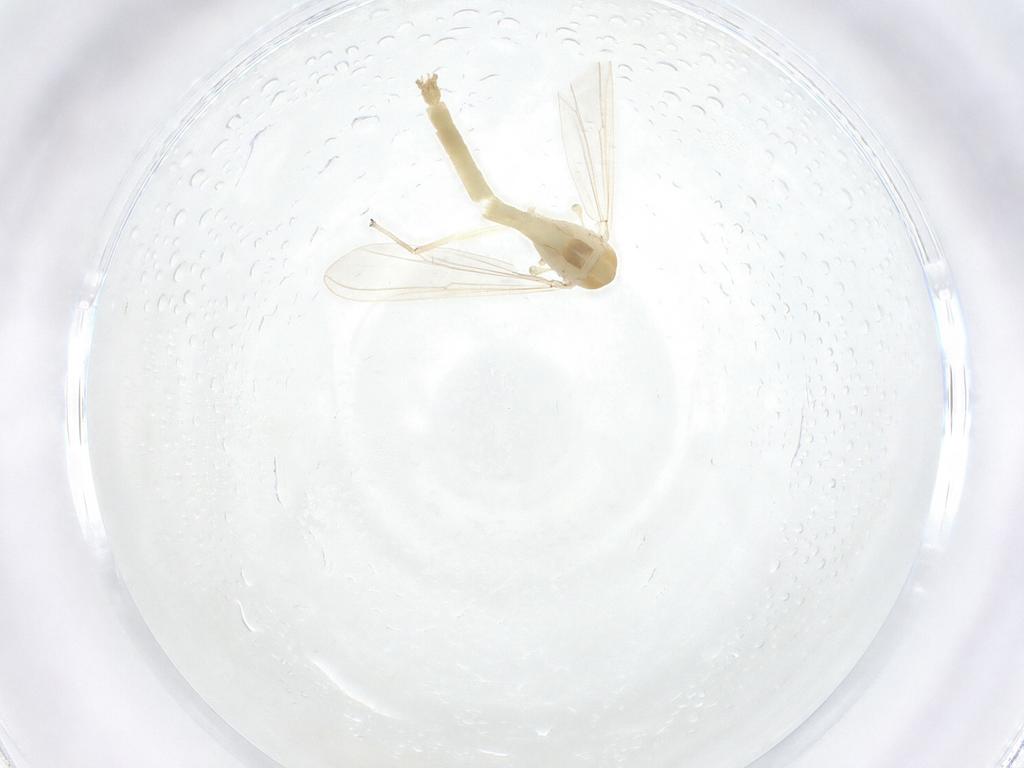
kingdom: Animalia
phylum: Arthropoda
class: Insecta
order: Diptera
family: Chironomidae
